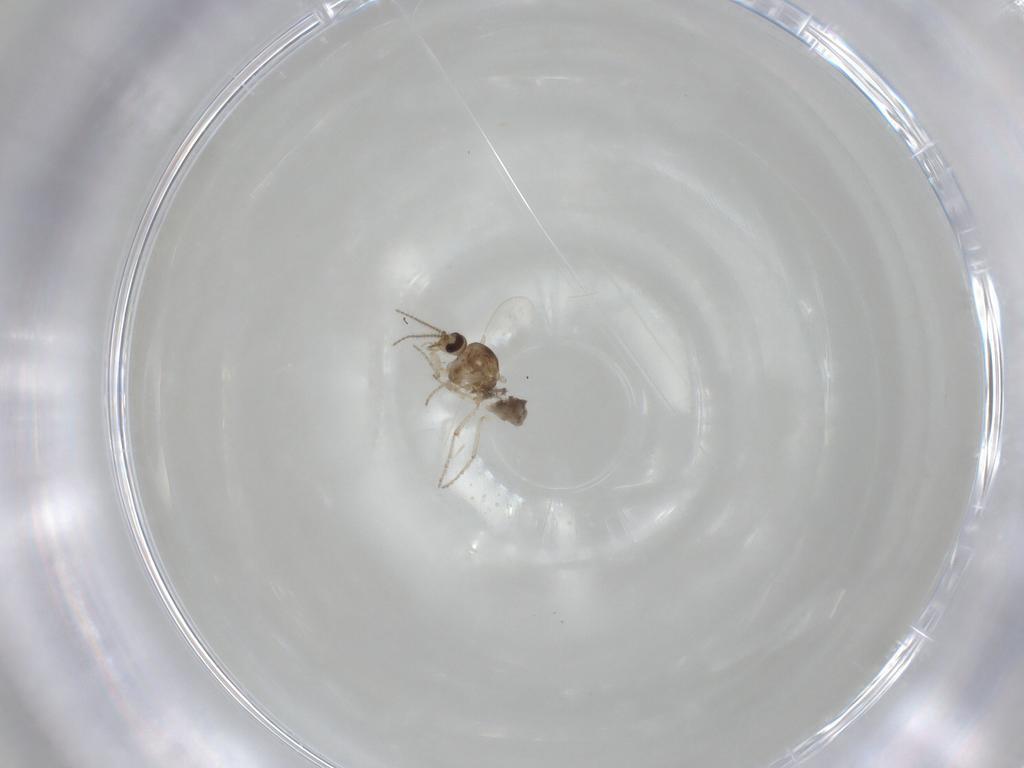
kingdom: Animalia
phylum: Arthropoda
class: Insecta
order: Diptera
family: Ceratopogonidae
